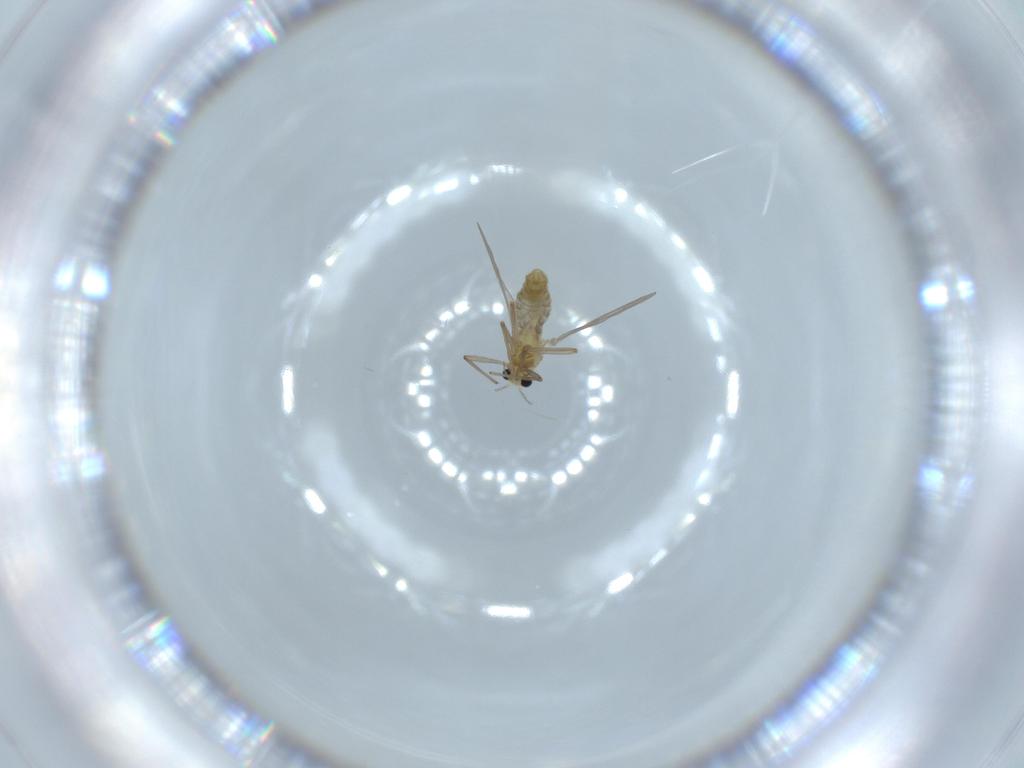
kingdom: Animalia
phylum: Arthropoda
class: Insecta
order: Diptera
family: Chironomidae
